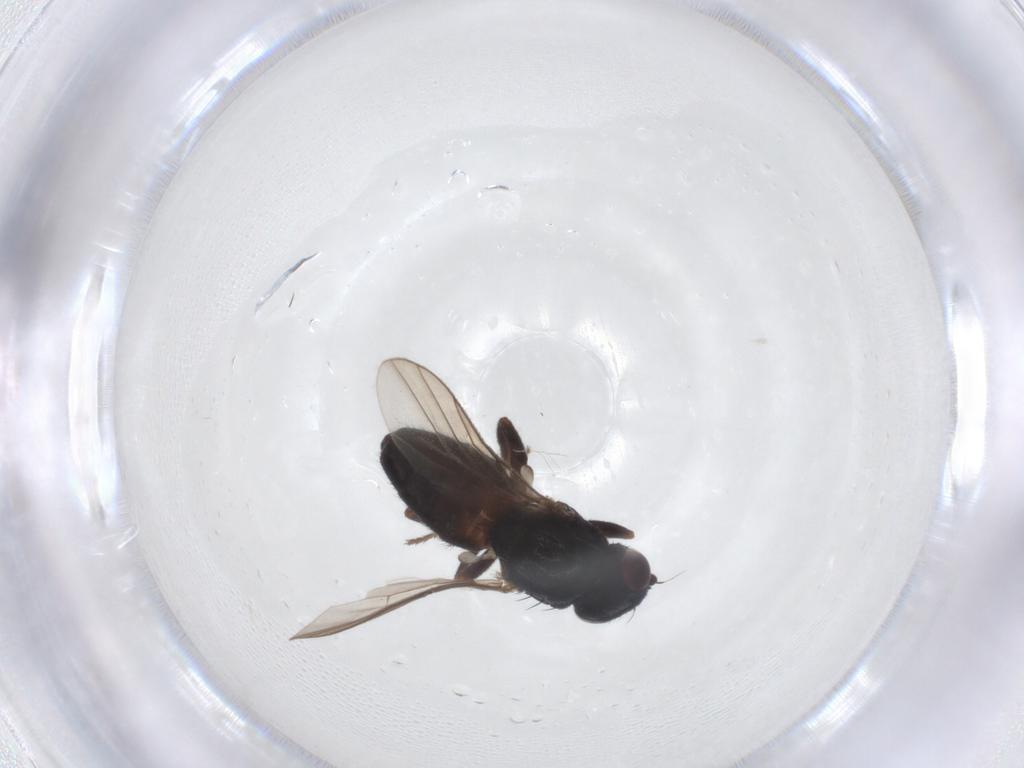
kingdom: Animalia
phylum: Arthropoda
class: Insecta
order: Diptera
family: Chloropidae
